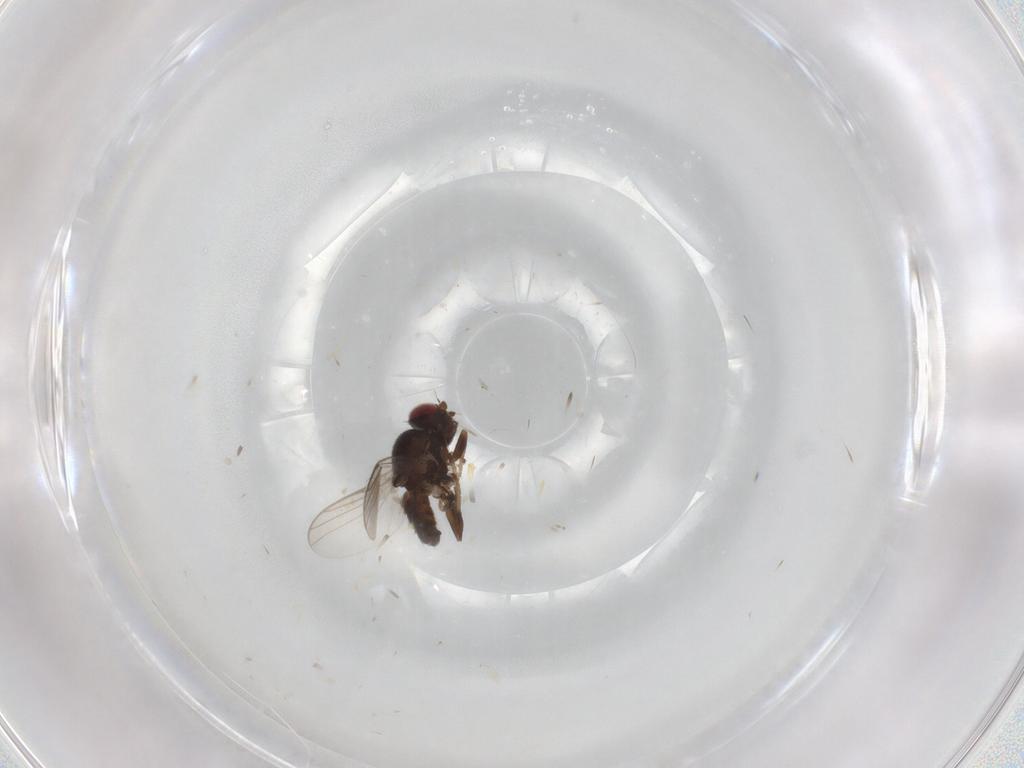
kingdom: Animalia
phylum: Arthropoda
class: Insecta
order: Diptera
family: Chloropidae
